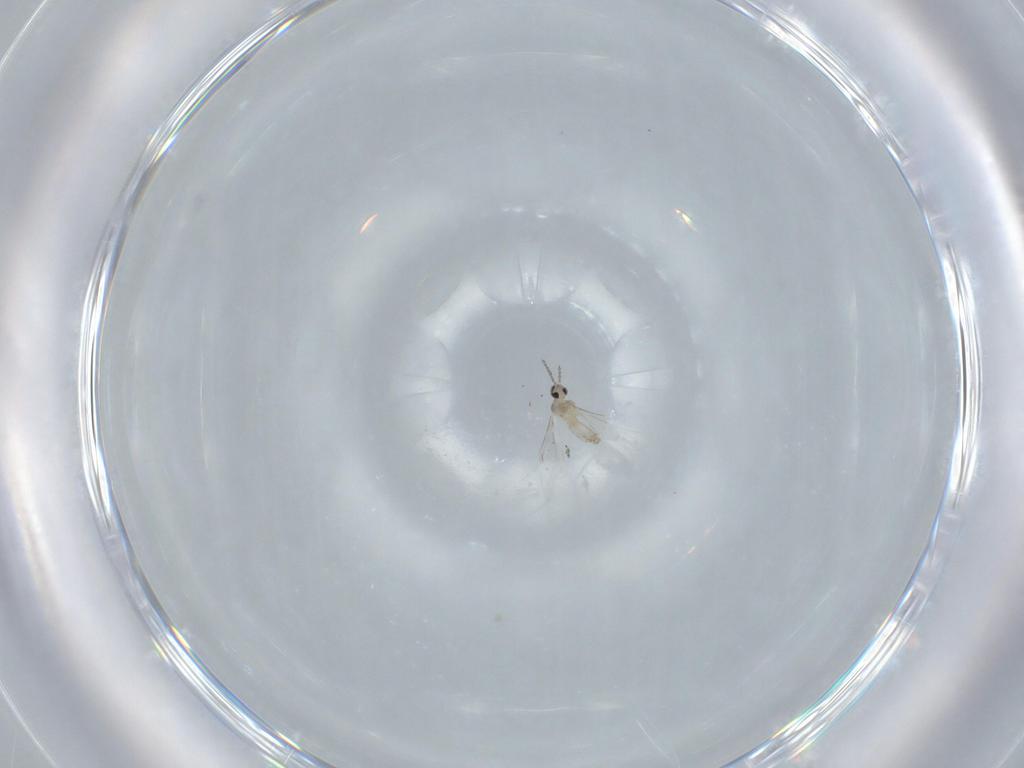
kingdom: Animalia
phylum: Arthropoda
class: Insecta
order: Diptera
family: Cecidomyiidae
